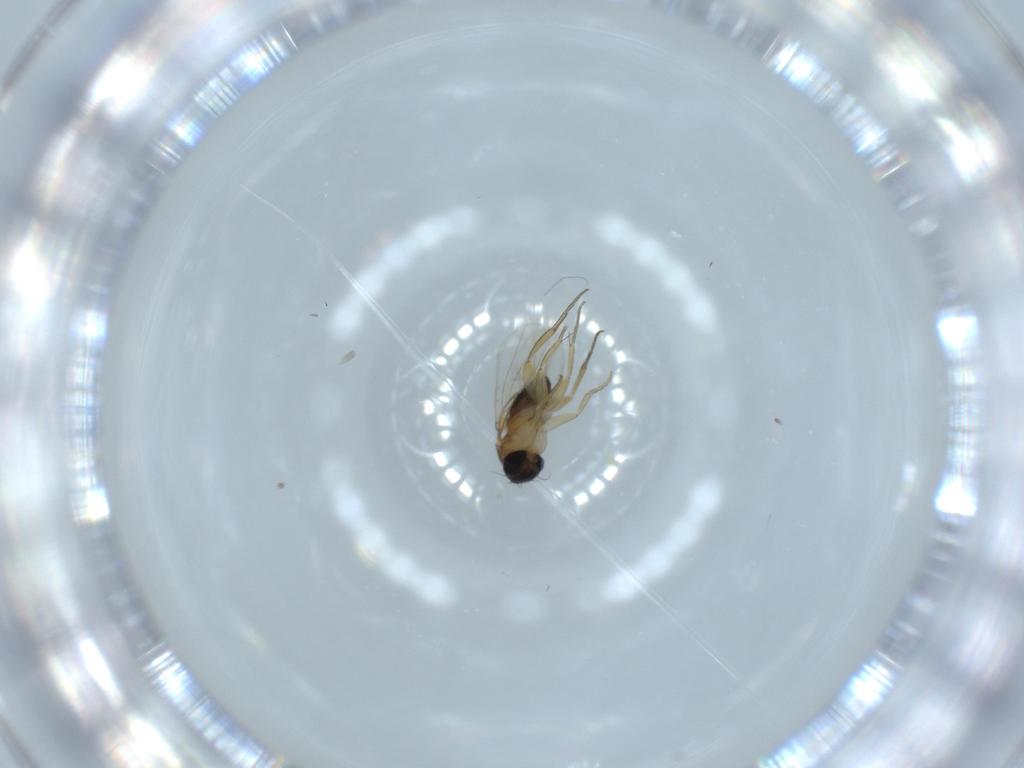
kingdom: Animalia
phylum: Arthropoda
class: Insecta
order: Diptera
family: Phoridae
